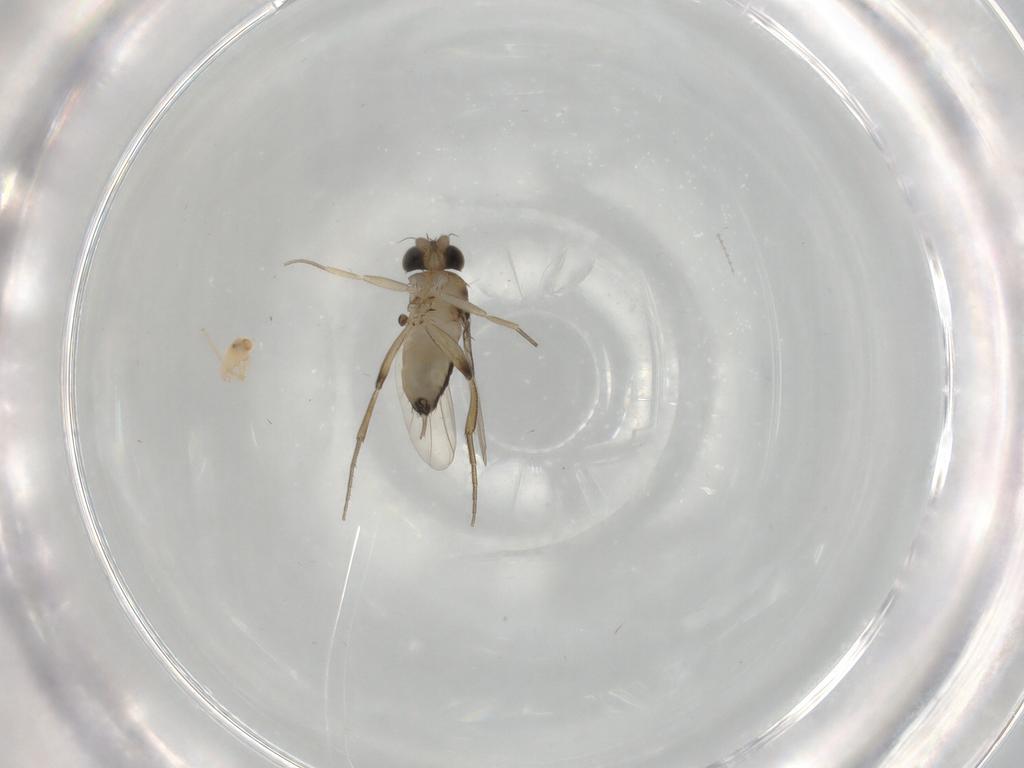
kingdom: Animalia
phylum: Arthropoda
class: Insecta
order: Diptera
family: Phoridae
